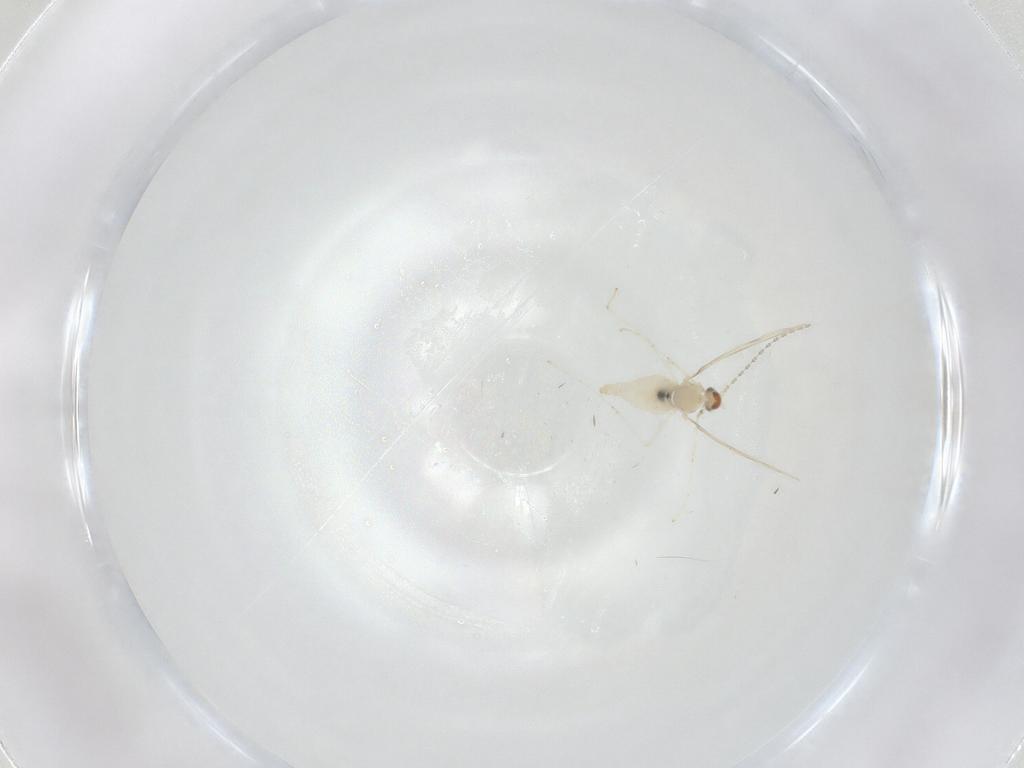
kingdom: Animalia
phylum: Arthropoda
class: Insecta
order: Diptera
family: Cecidomyiidae
